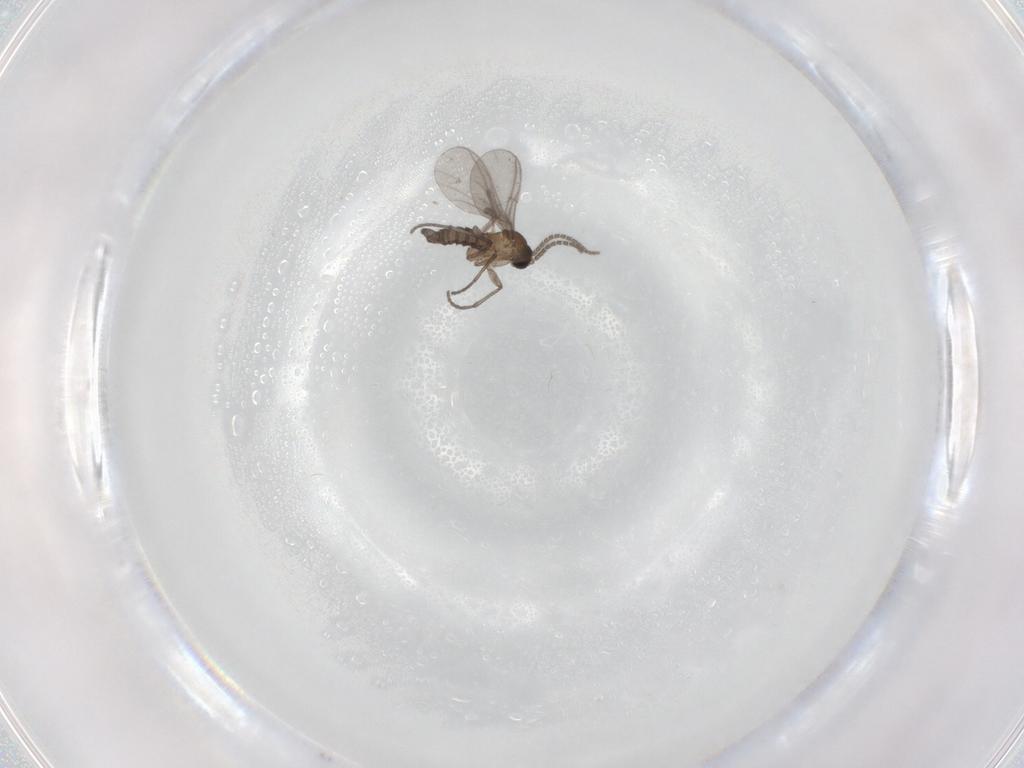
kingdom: Animalia
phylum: Arthropoda
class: Insecta
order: Diptera
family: Sciaridae
